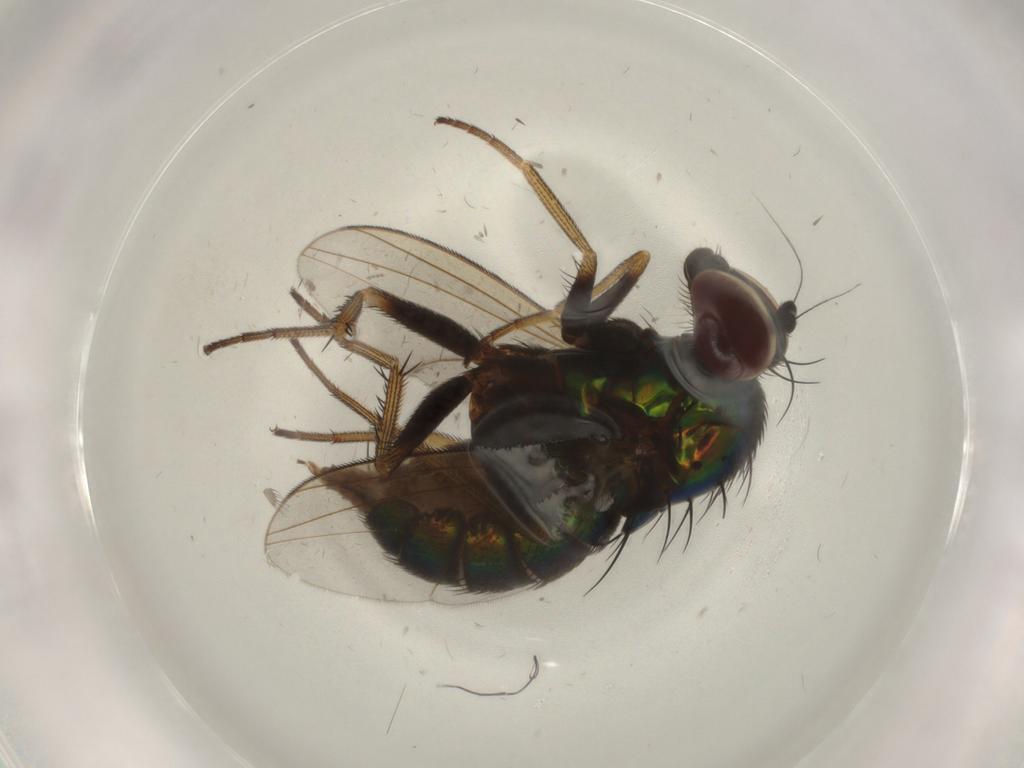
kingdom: Animalia
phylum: Arthropoda
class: Insecta
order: Diptera
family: Dolichopodidae
